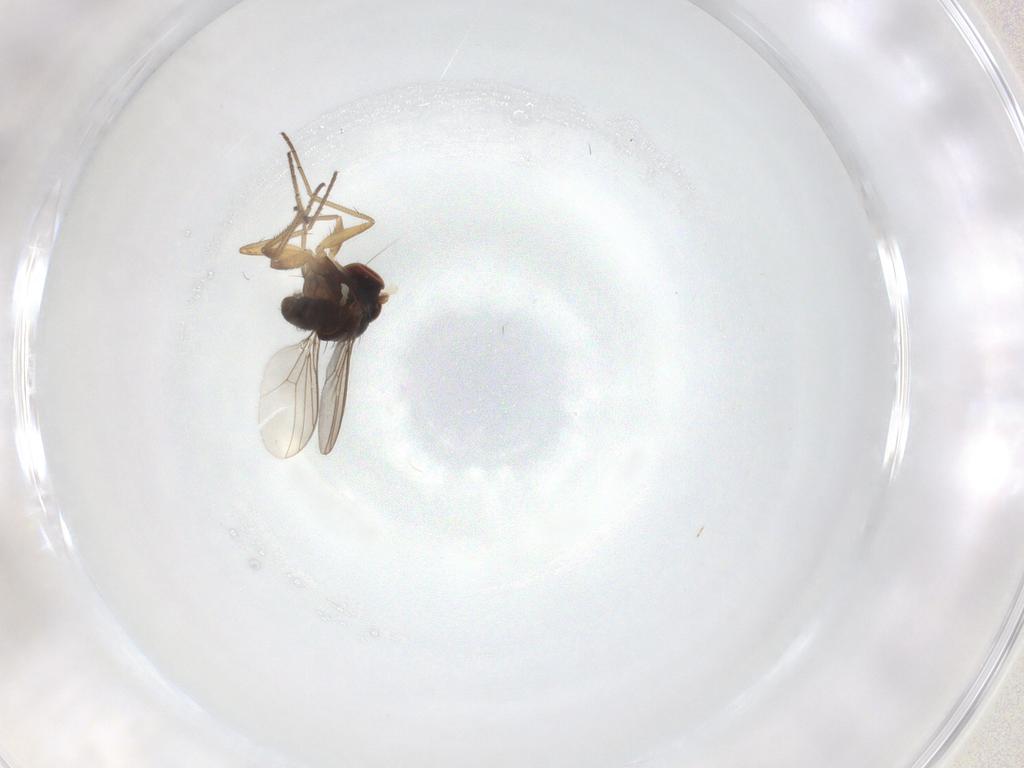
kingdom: Animalia
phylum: Arthropoda
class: Insecta
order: Diptera
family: Dolichopodidae
